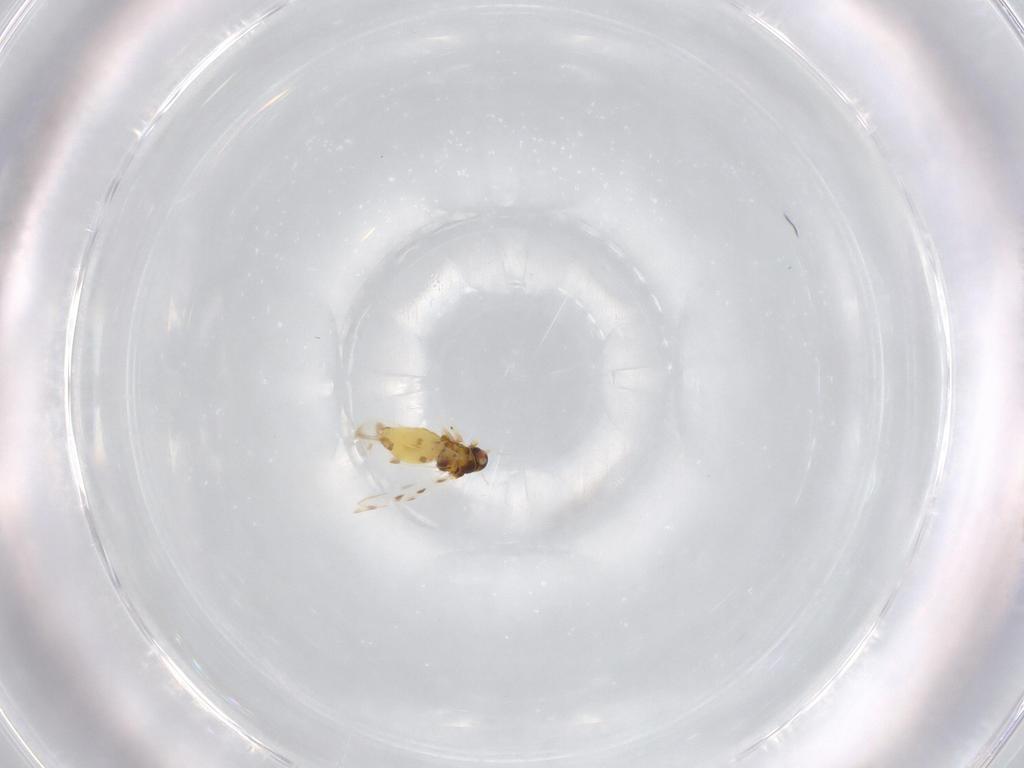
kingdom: Animalia
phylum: Arthropoda
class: Insecta
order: Hemiptera
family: Aleyrodidae
